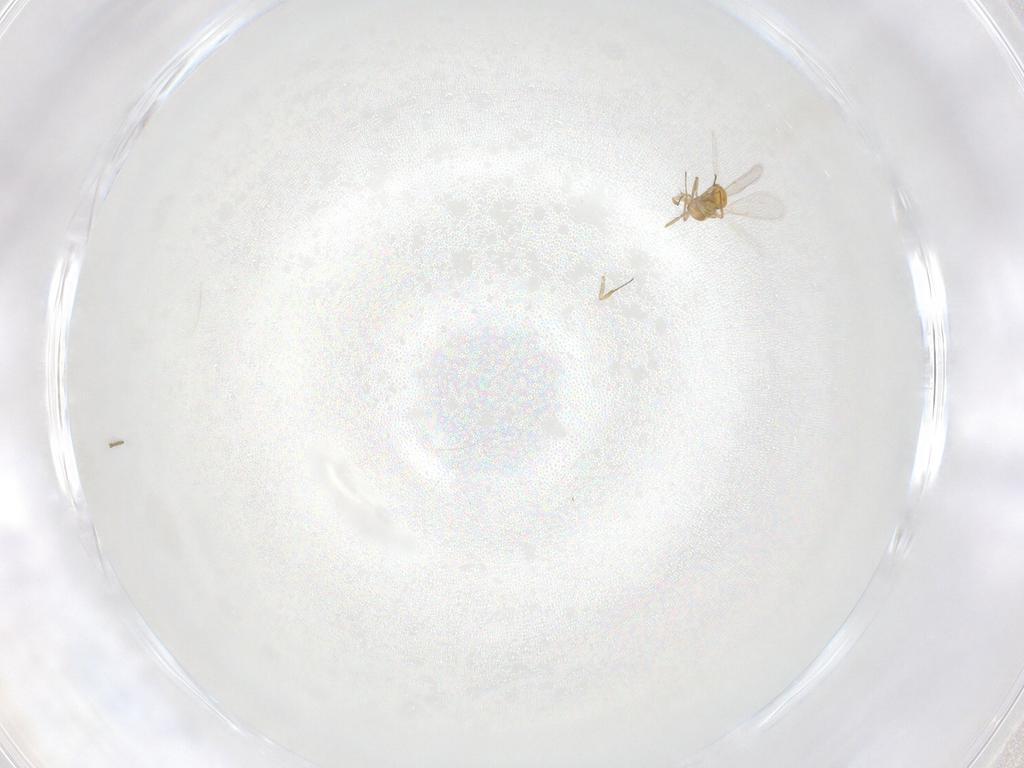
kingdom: Animalia
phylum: Arthropoda
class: Insecta
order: Hymenoptera
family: Aphelinidae
